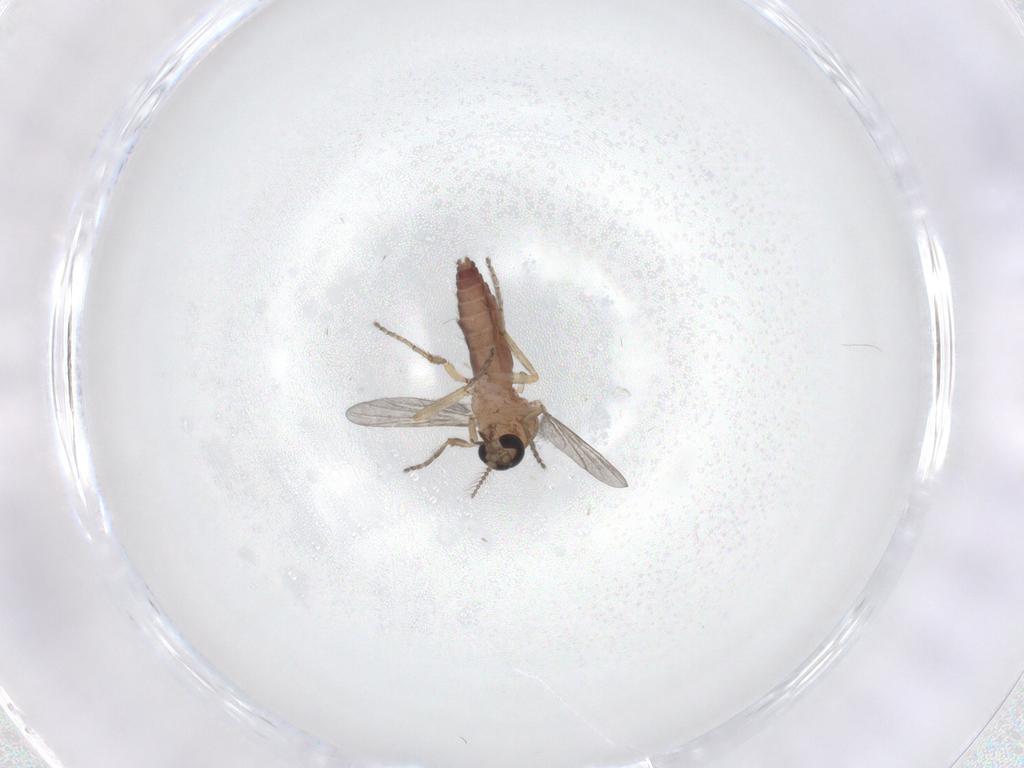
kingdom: Animalia
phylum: Arthropoda
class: Insecta
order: Diptera
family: Ceratopogonidae
